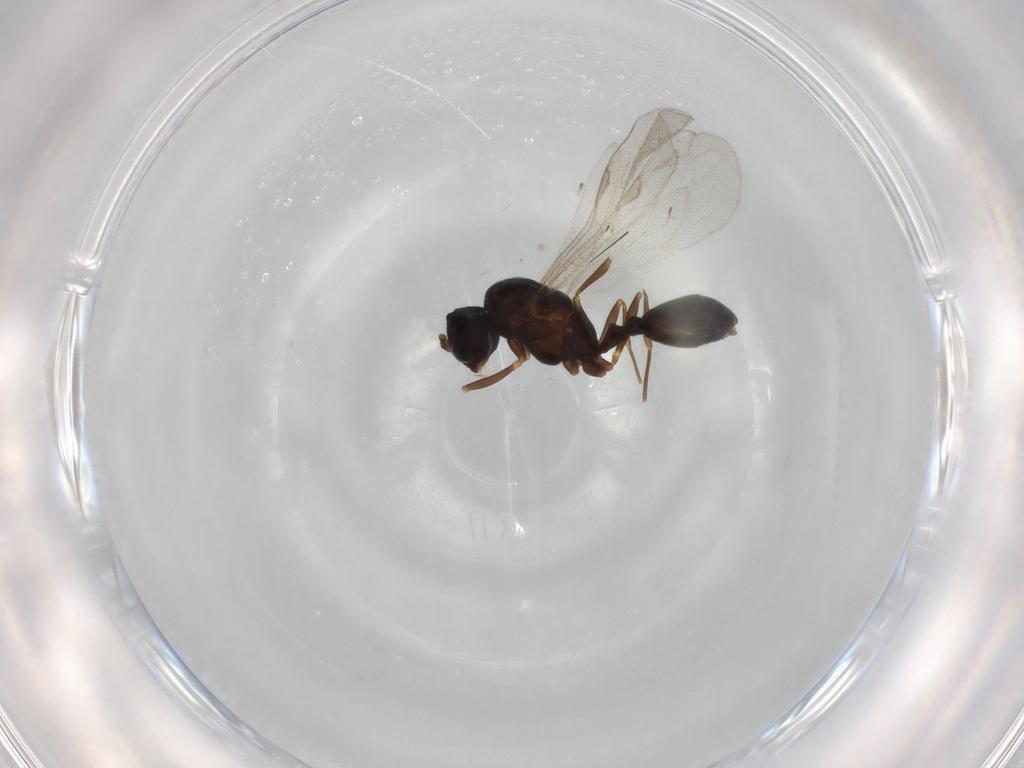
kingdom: Animalia
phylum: Arthropoda
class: Insecta
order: Hymenoptera
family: Formicidae
